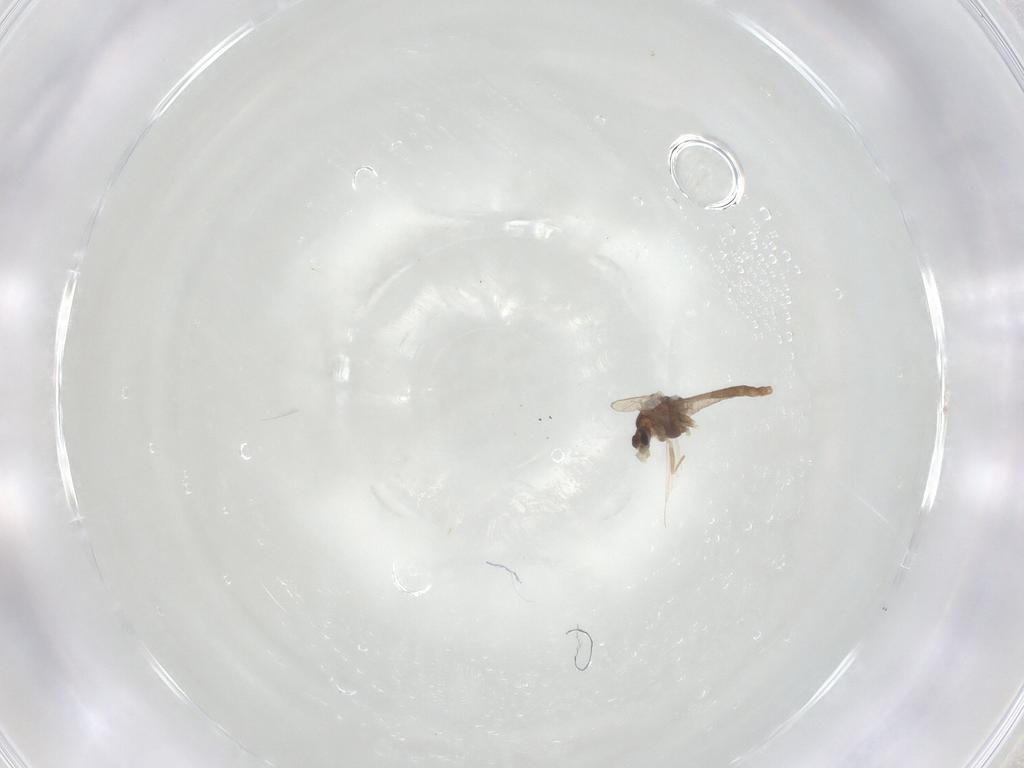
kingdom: Animalia
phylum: Arthropoda
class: Insecta
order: Diptera
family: Chironomidae
